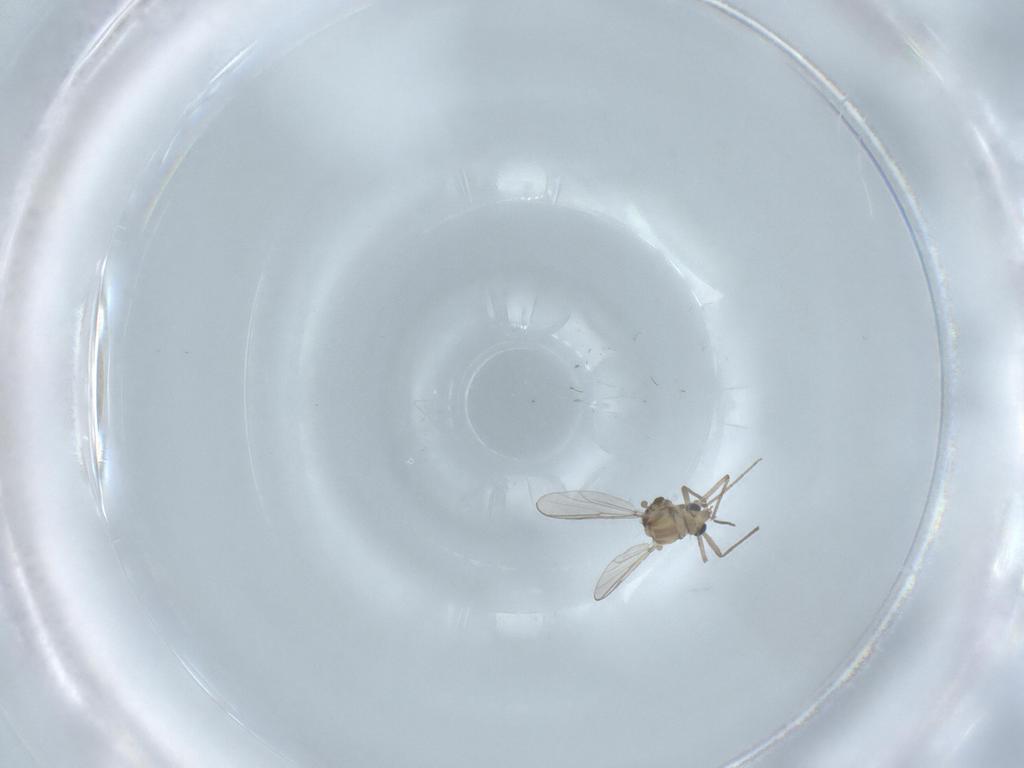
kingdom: Animalia
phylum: Arthropoda
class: Insecta
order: Diptera
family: Chironomidae
